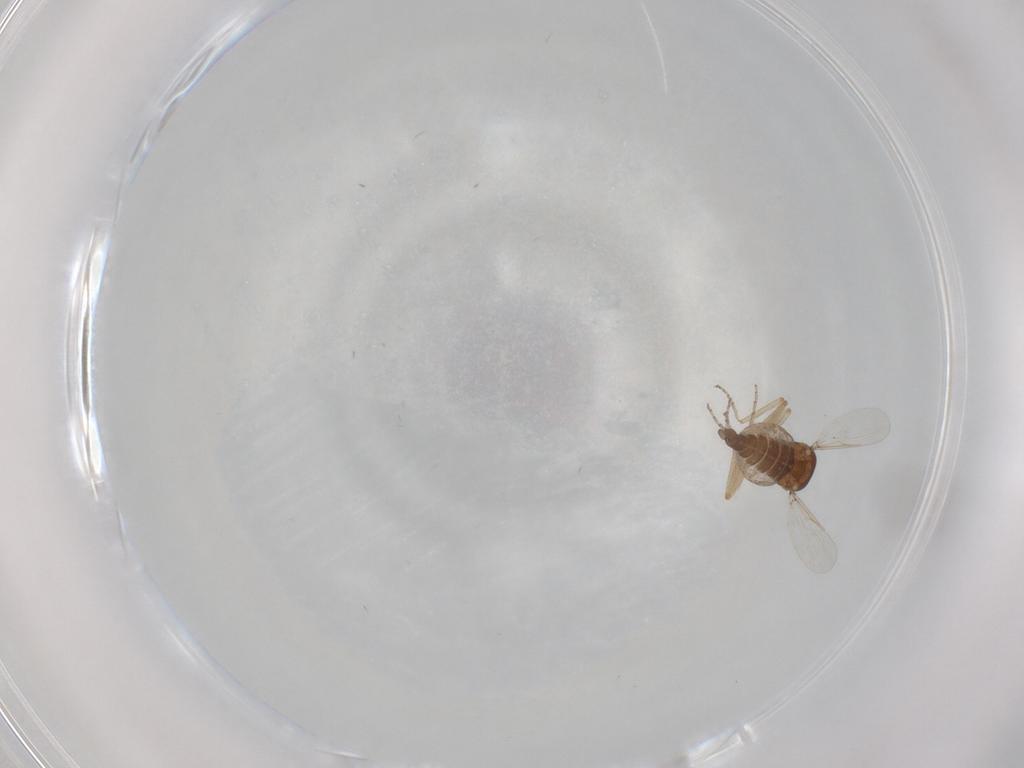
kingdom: Animalia
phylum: Arthropoda
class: Insecta
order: Diptera
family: Ceratopogonidae
